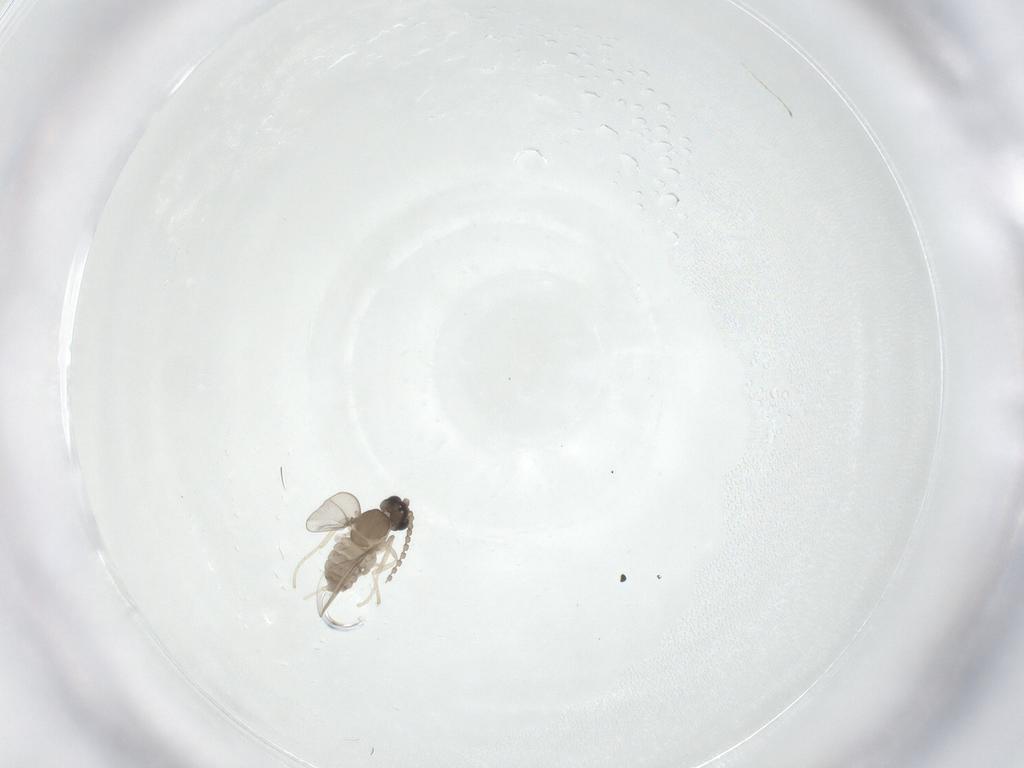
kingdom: Animalia
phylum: Arthropoda
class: Insecta
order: Diptera
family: Cecidomyiidae
